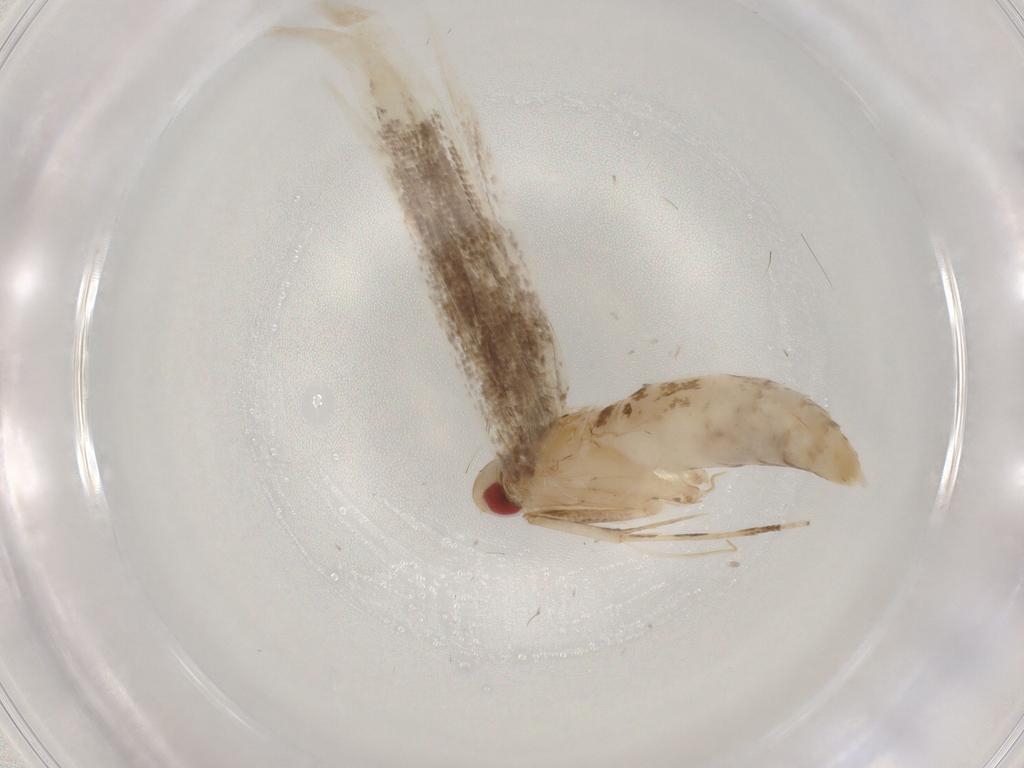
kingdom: Animalia
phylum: Arthropoda
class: Insecta
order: Lepidoptera
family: Cosmopterigidae
